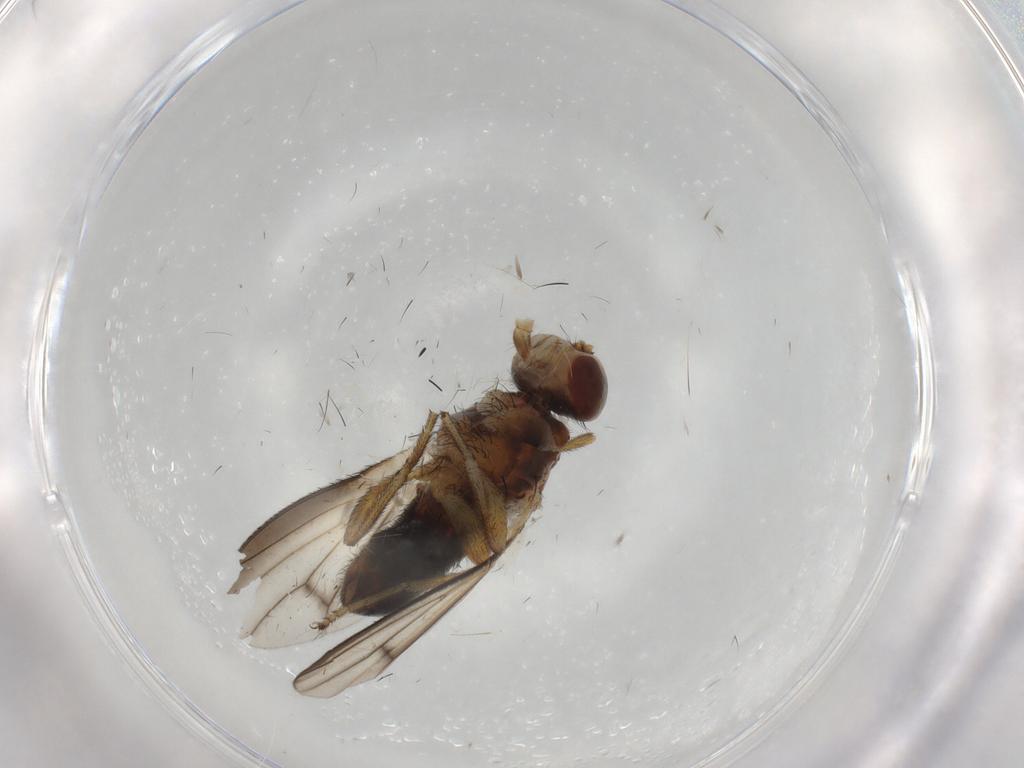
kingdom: Animalia
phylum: Arthropoda
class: Insecta
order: Diptera
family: Heleomyzidae
